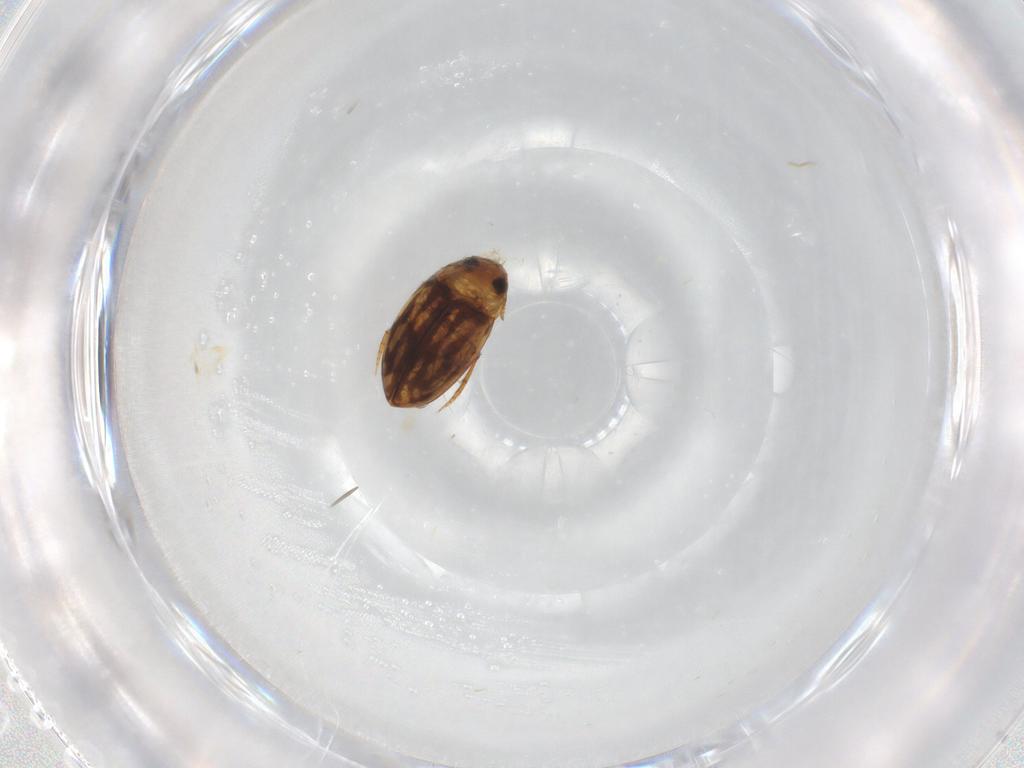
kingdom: Animalia
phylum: Arthropoda
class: Insecta
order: Coleoptera
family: Dytiscidae
